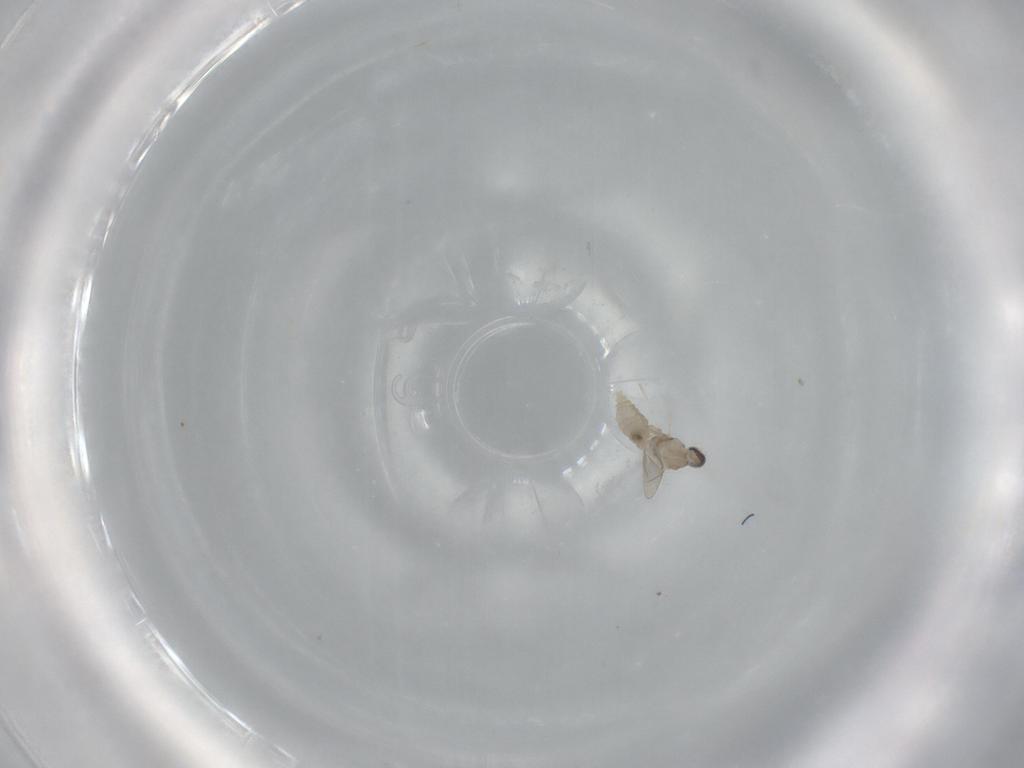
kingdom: Animalia
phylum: Arthropoda
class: Insecta
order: Diptera
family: Cecidomyiidae
